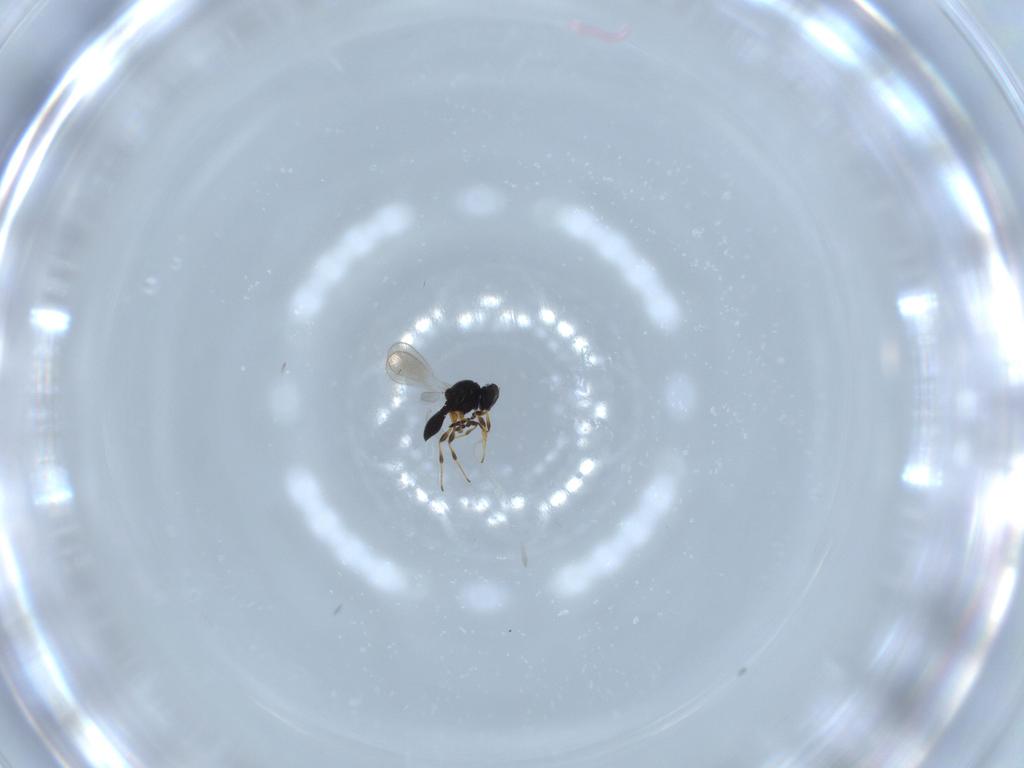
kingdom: Animalia
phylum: Arthropoda
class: Insecta
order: Hymenoptera
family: Platygastridae
